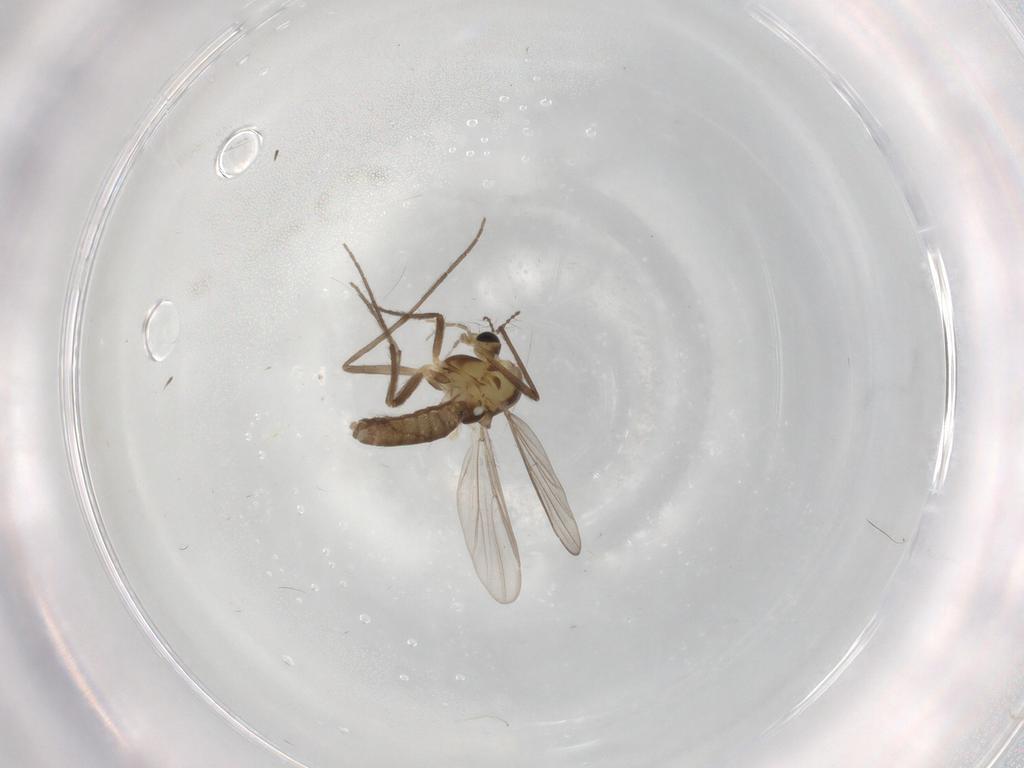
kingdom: Animalia
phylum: Arthropoda
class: Insecta
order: Diptera
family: Chironomidae
